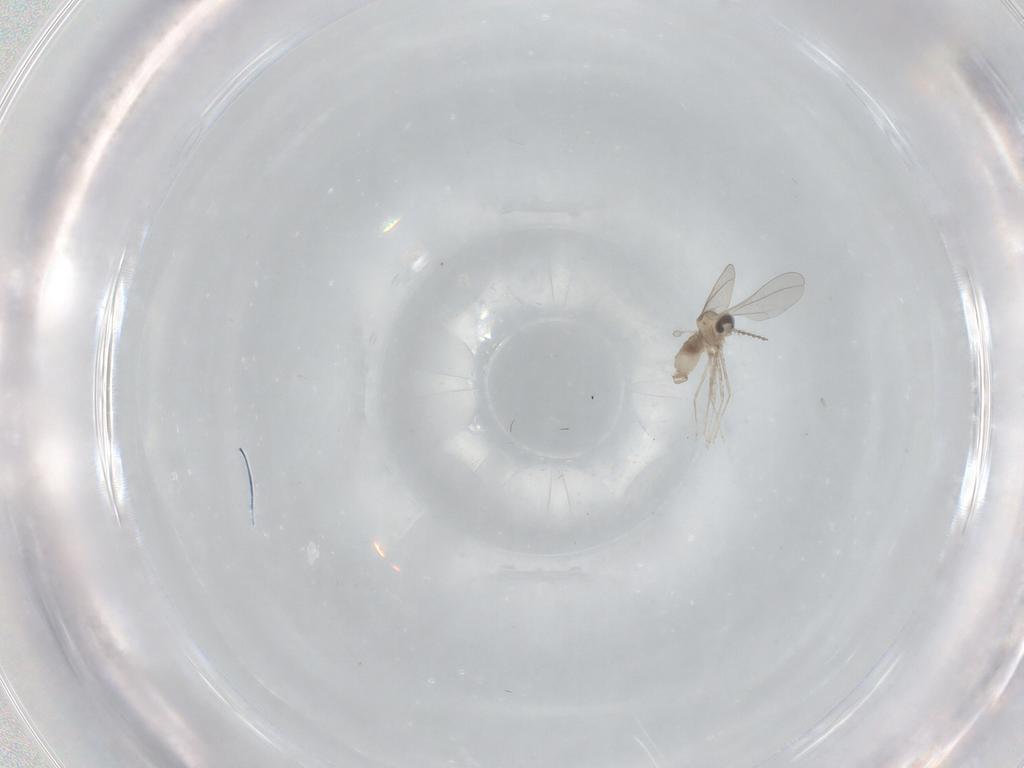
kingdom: Animalia
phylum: Arthropoda
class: Insecta
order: Diptera
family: Cecidomyiidae
